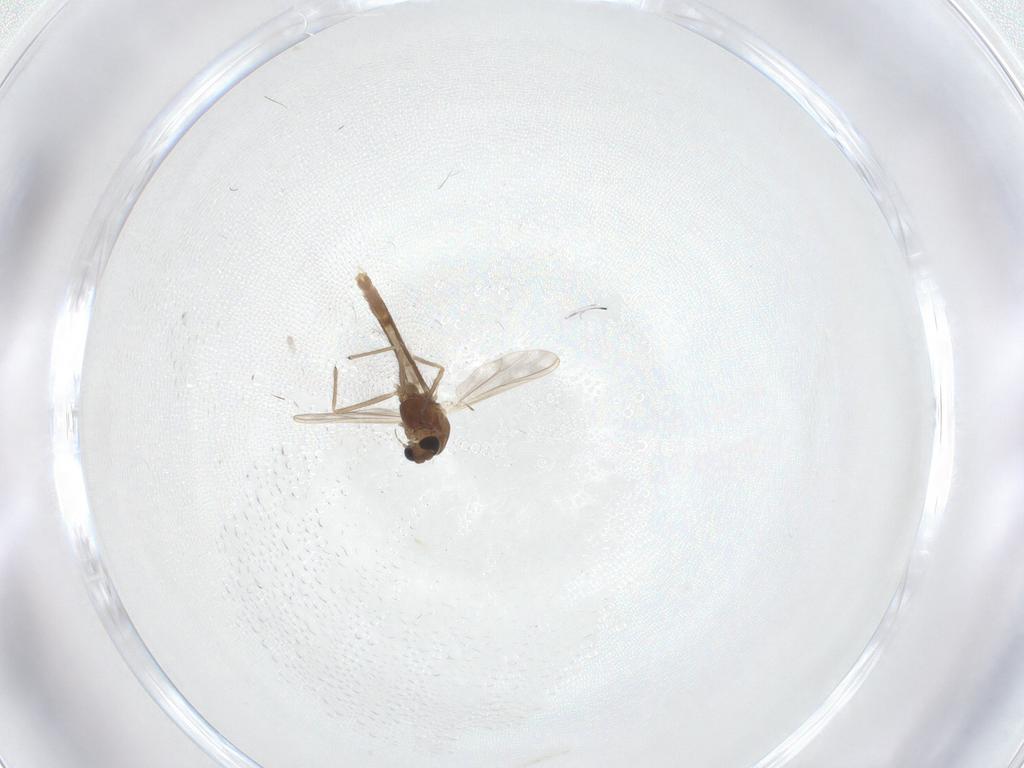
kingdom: Animalia
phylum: Arthropoda
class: Insecta
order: Diptera
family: Chironomidae
